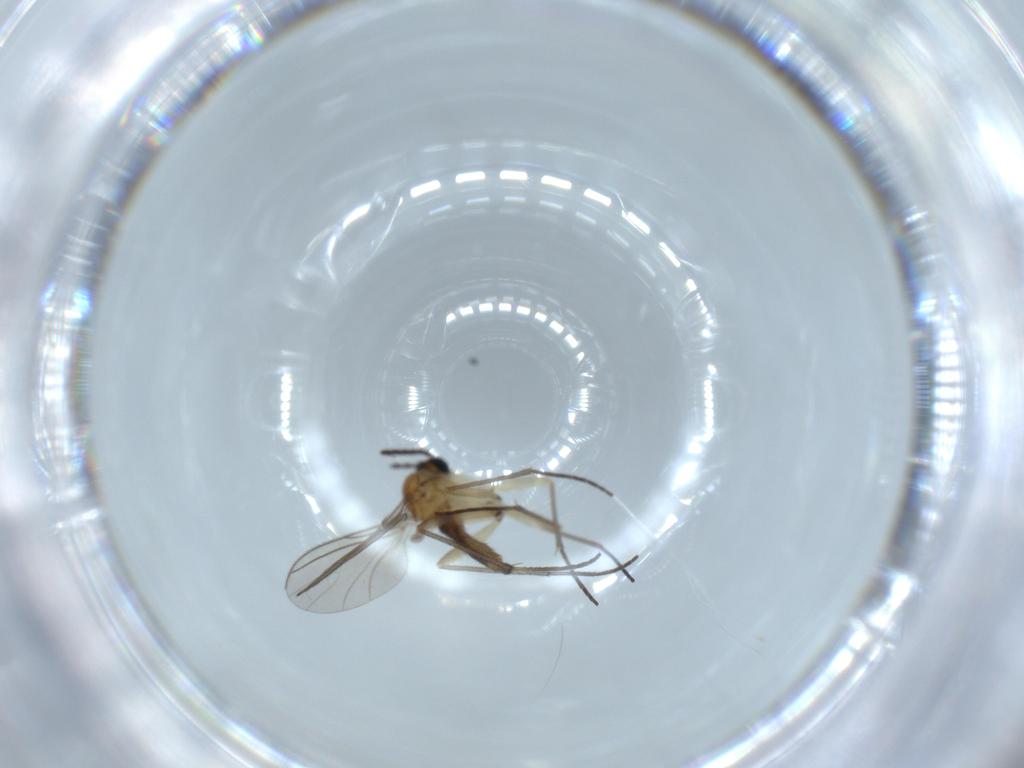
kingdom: Animalia
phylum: Arthropoda
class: Insecta
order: Diptera
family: Sciaridae
